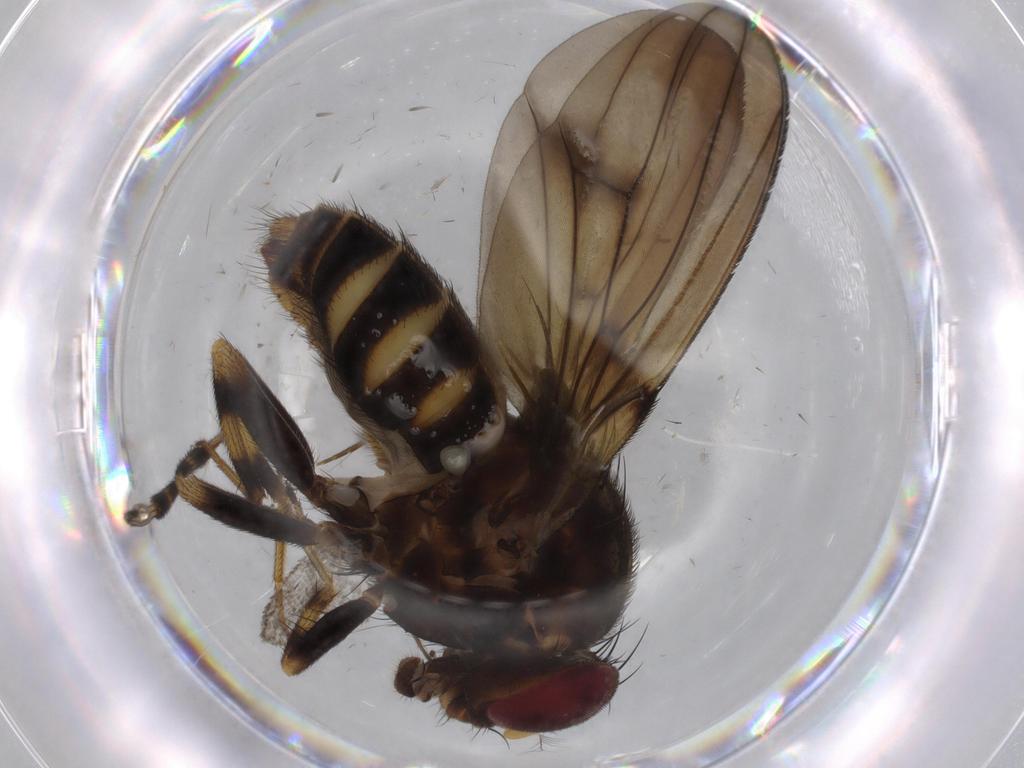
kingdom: Animalia
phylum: Arthropoda
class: Insecta
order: Diptera
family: Drosophilidae
